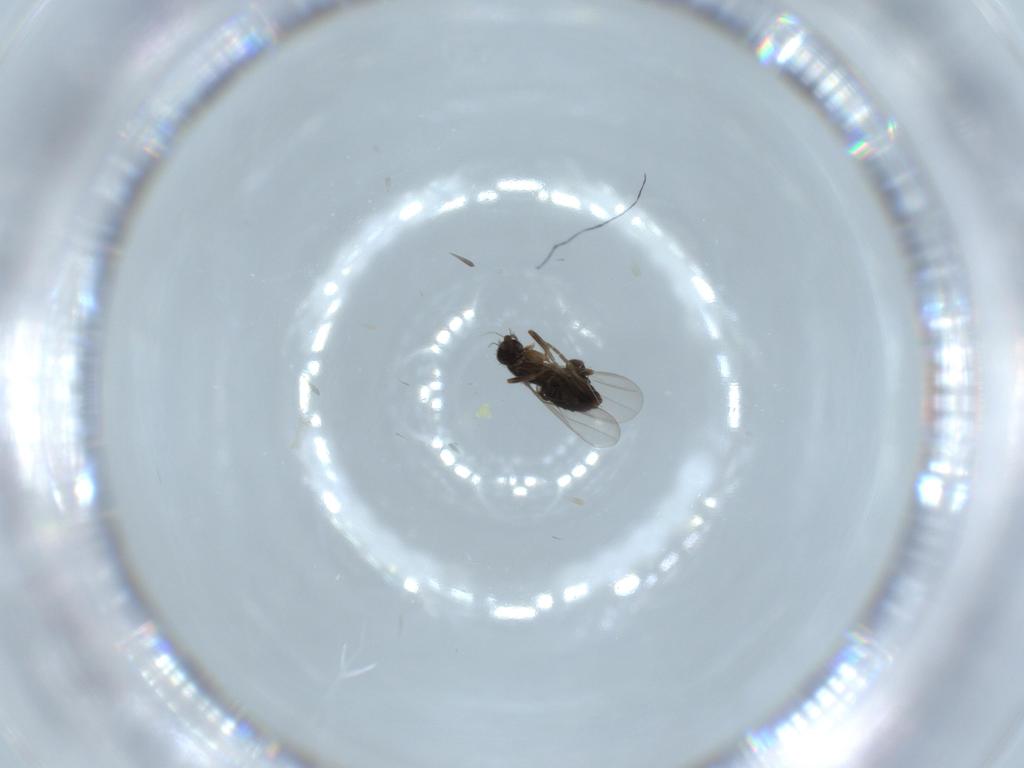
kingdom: Animalia
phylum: Arthropoda
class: Insecta
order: Diptera
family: Phoridae
